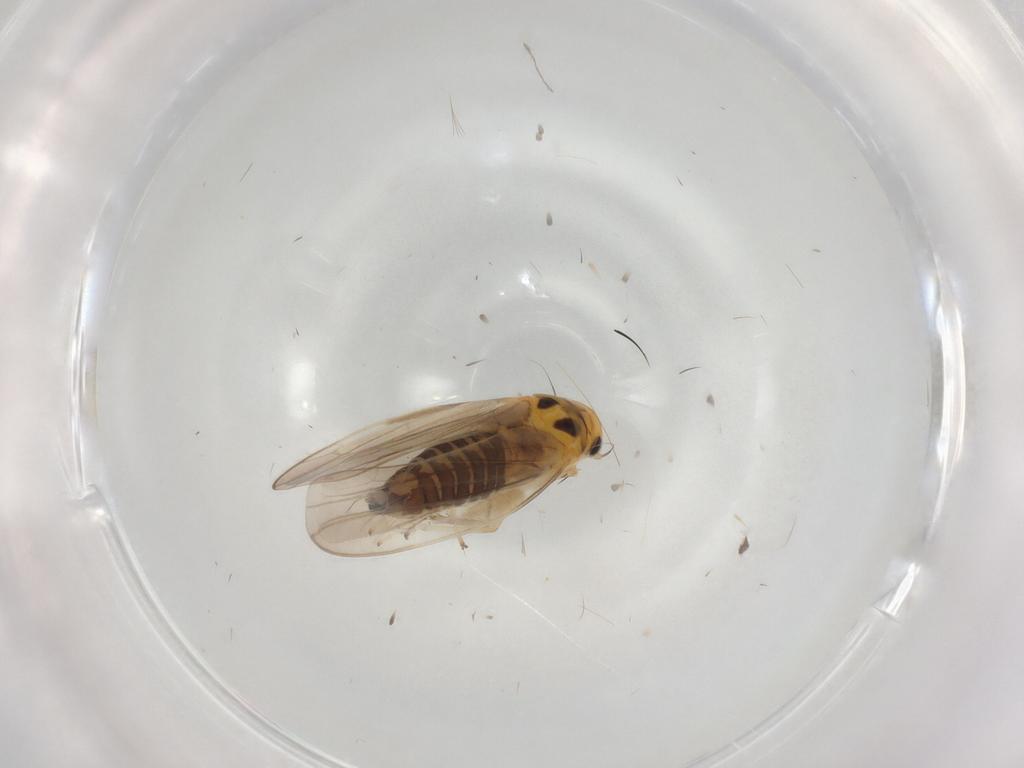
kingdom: Animalia
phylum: Arthropoda
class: Insecta
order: Hemiptera
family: Cicadellidae
